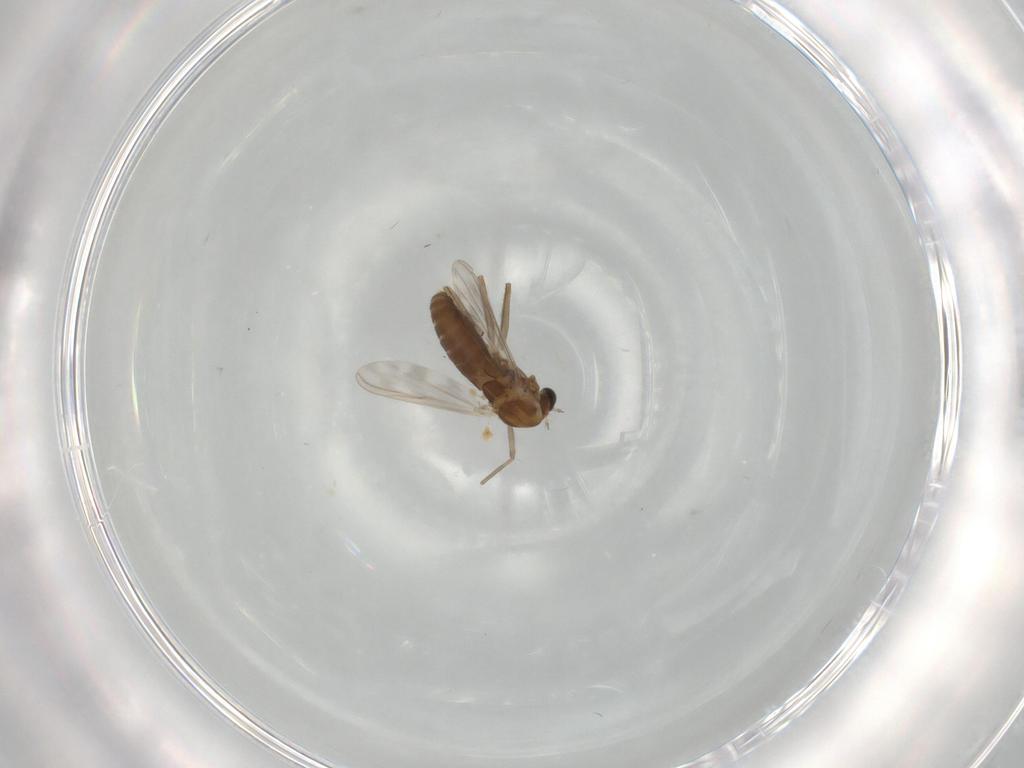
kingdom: Animalia
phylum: Arthropoda
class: Insecta
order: Diptera
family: Chironomidae
